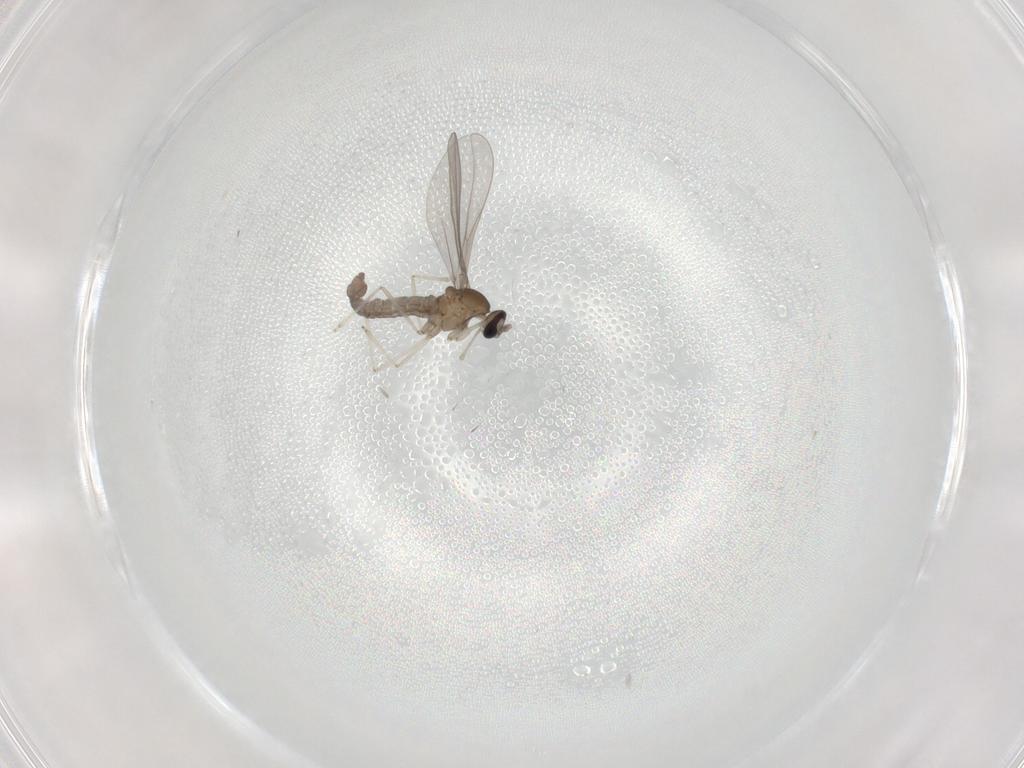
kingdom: Animalia
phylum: Arthropoda
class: Insecta
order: Diptera
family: Cecidomyiidae
